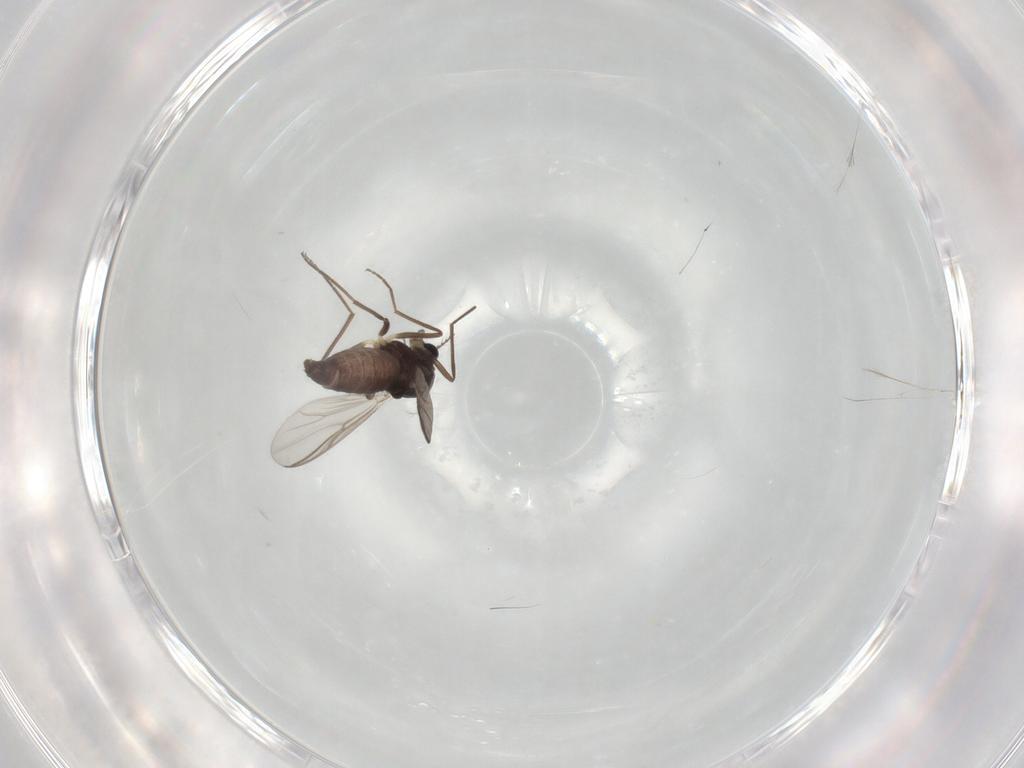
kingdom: Animalia
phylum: Arthropoda
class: Insecta
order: Diptera
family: Chironomidae
